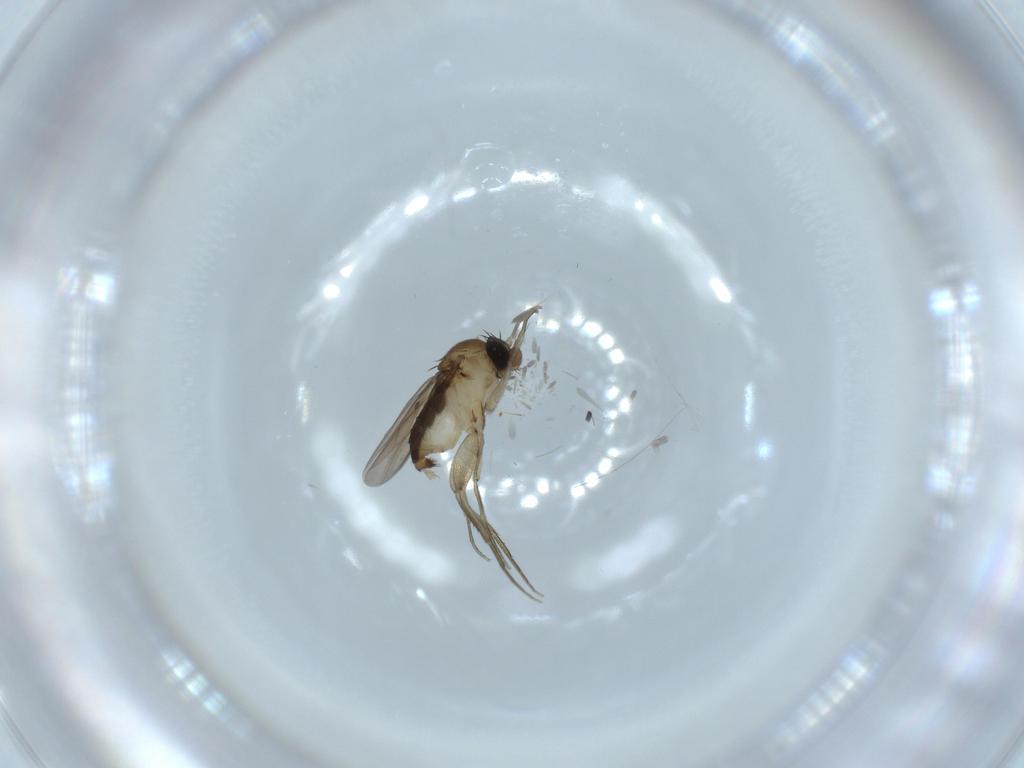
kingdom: Animalia
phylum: Arthropoda
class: Insecta
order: Diptera
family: Phoridae
